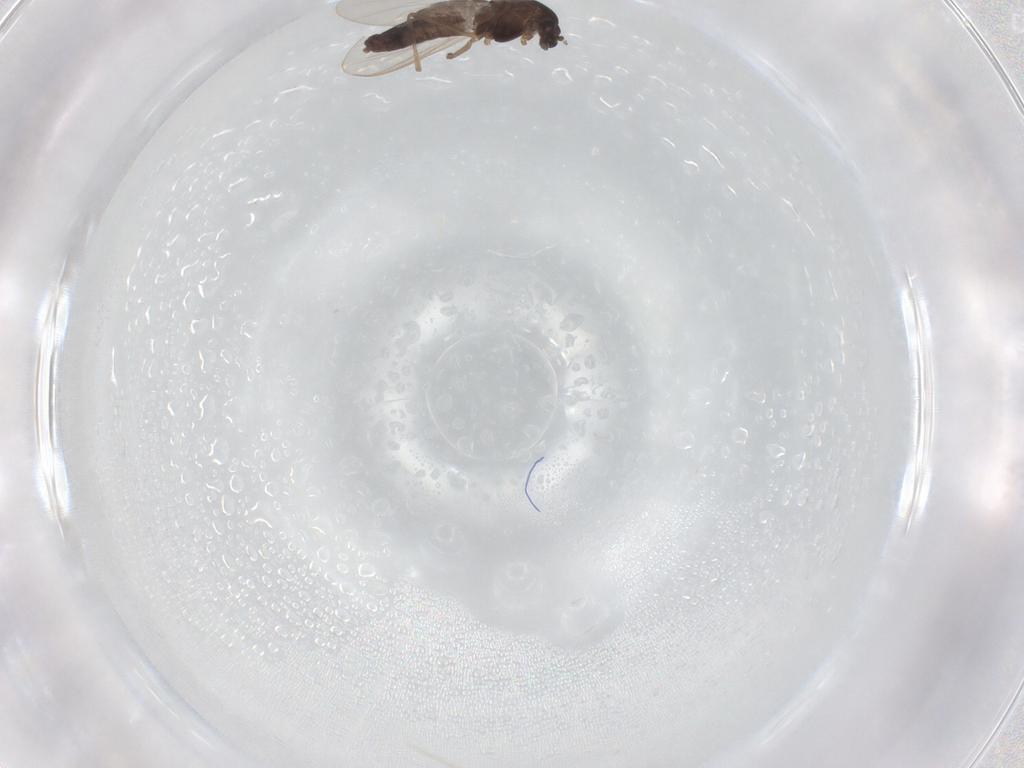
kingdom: Animalia
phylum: Arthropoda
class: Insecta
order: Diptera
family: Chironomidae
